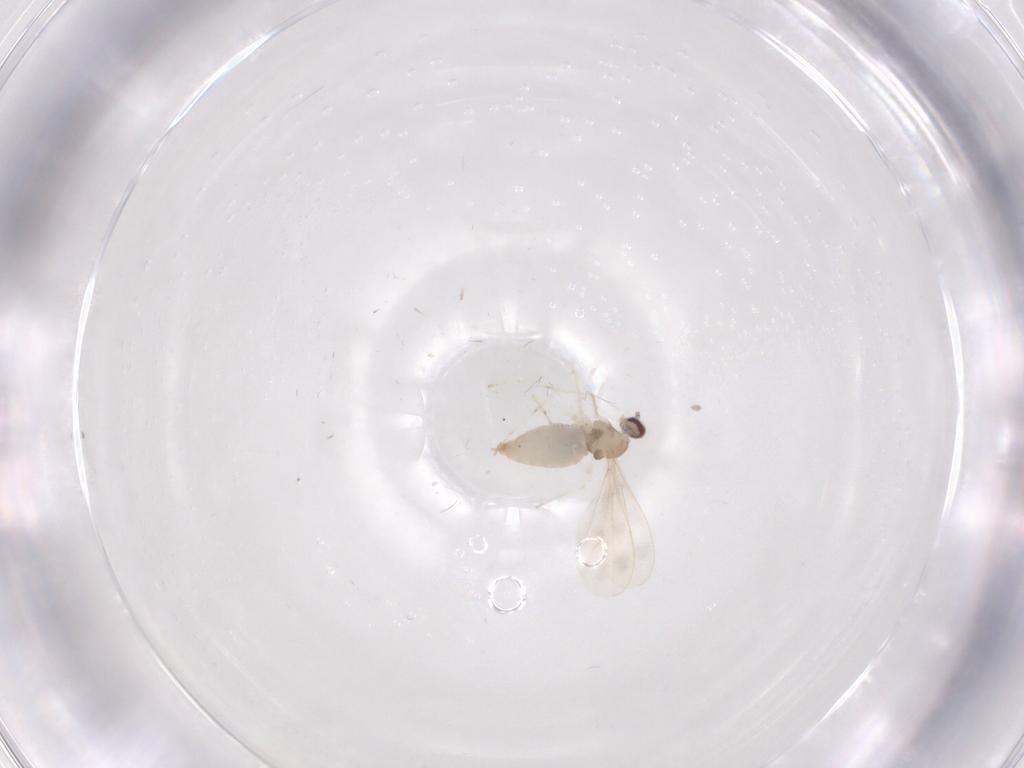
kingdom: Animalia
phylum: Arthropoda
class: Insecta
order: Diptera
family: Cecidomyiidae
